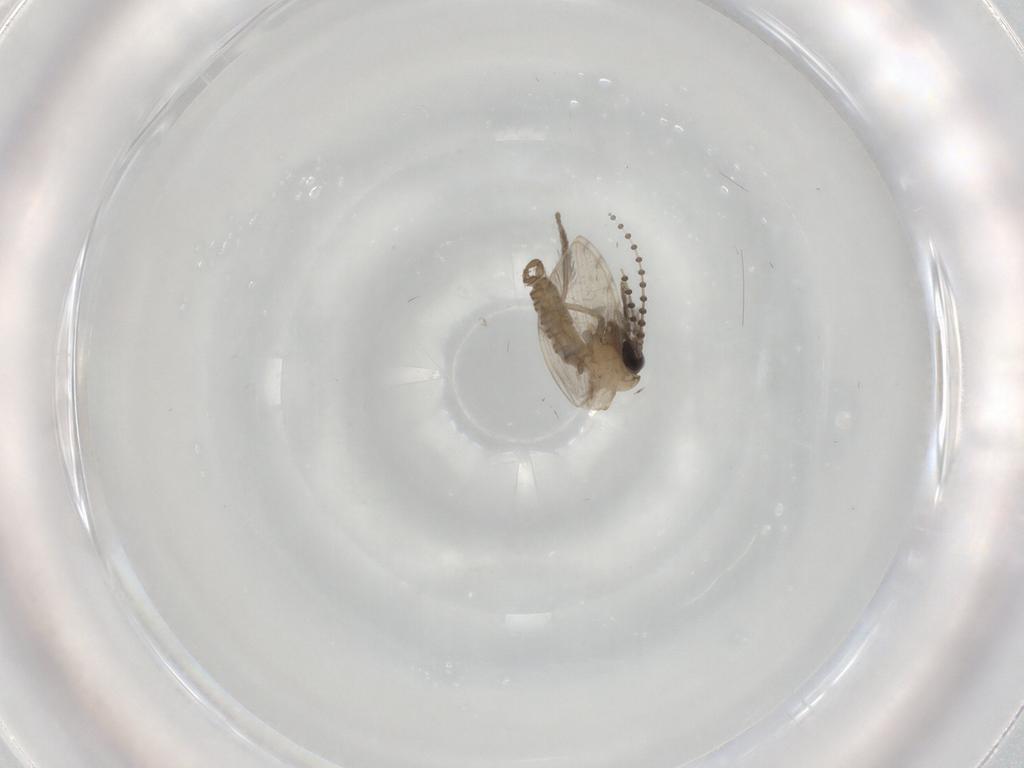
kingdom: Animalia
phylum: Arthropoda
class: Insecta
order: Diptera
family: Psychodidae
